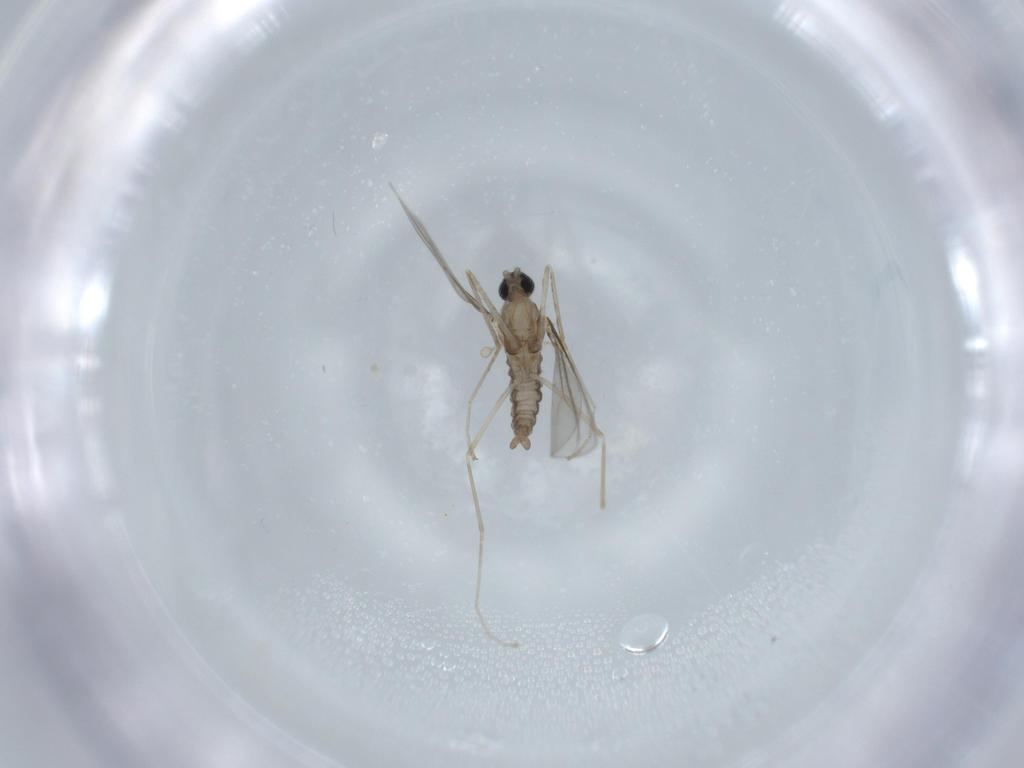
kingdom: Animalia
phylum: Arthropoda
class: Insecta
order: Diptera
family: Cecidomyiidae
